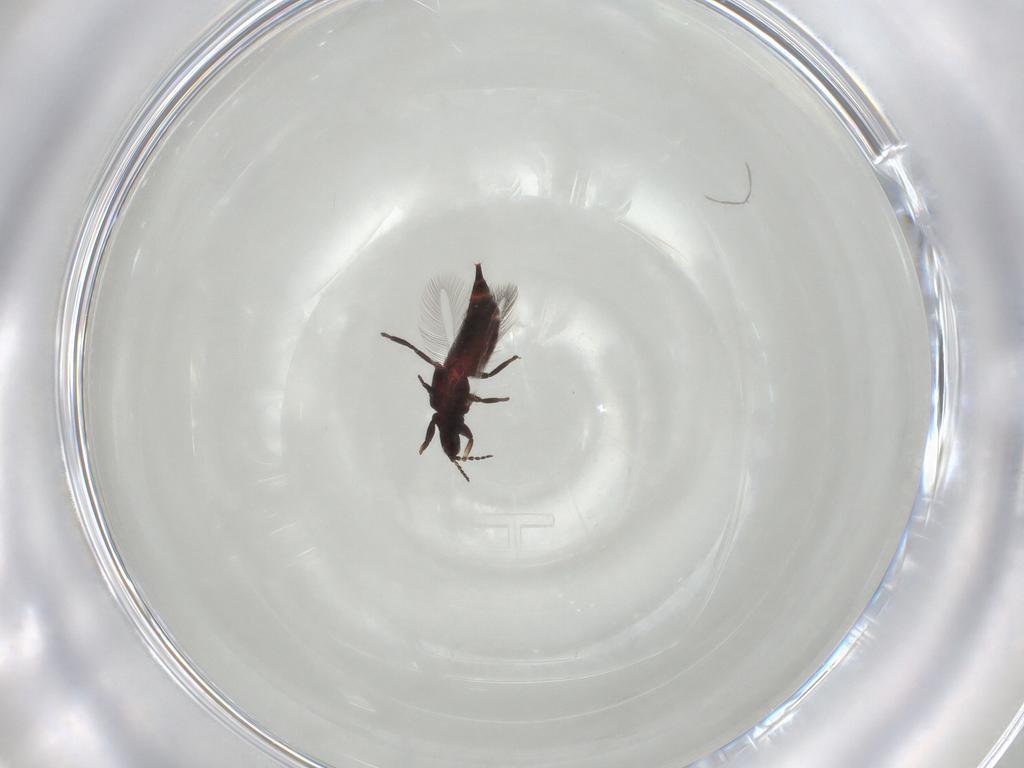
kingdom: Animalia
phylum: Arthropoda
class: Insecta
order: Thysanoptera
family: Phlaeothripidae
